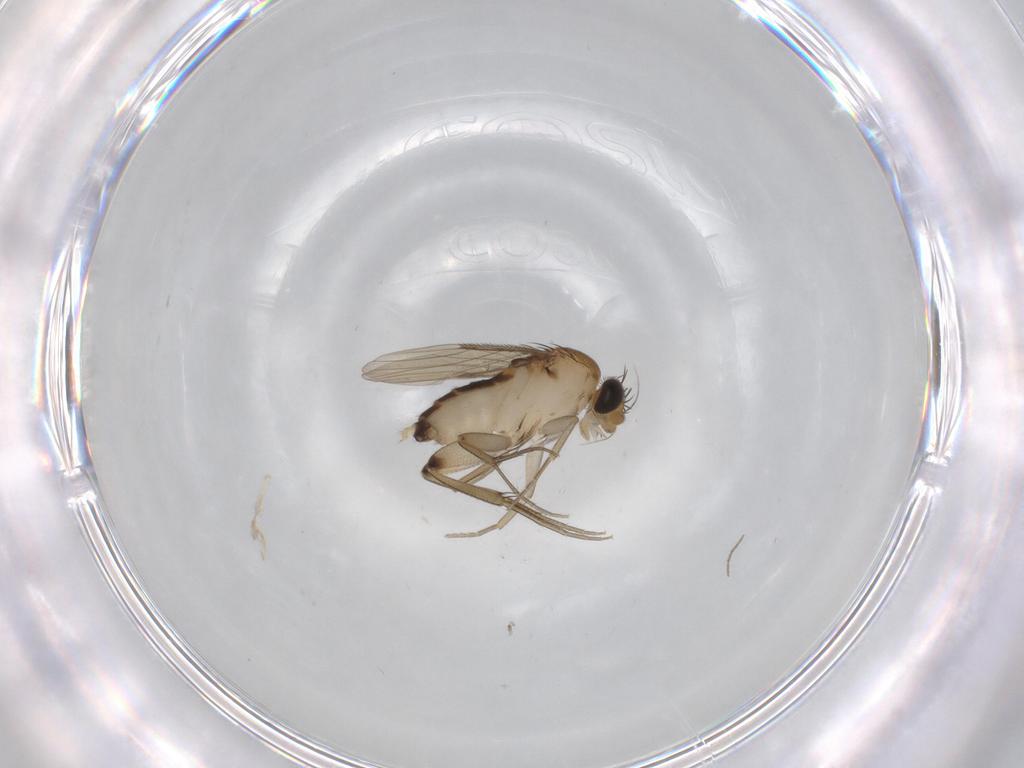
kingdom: Animalia
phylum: Arthropoda
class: Insecta
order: Diptera
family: Phoridae
